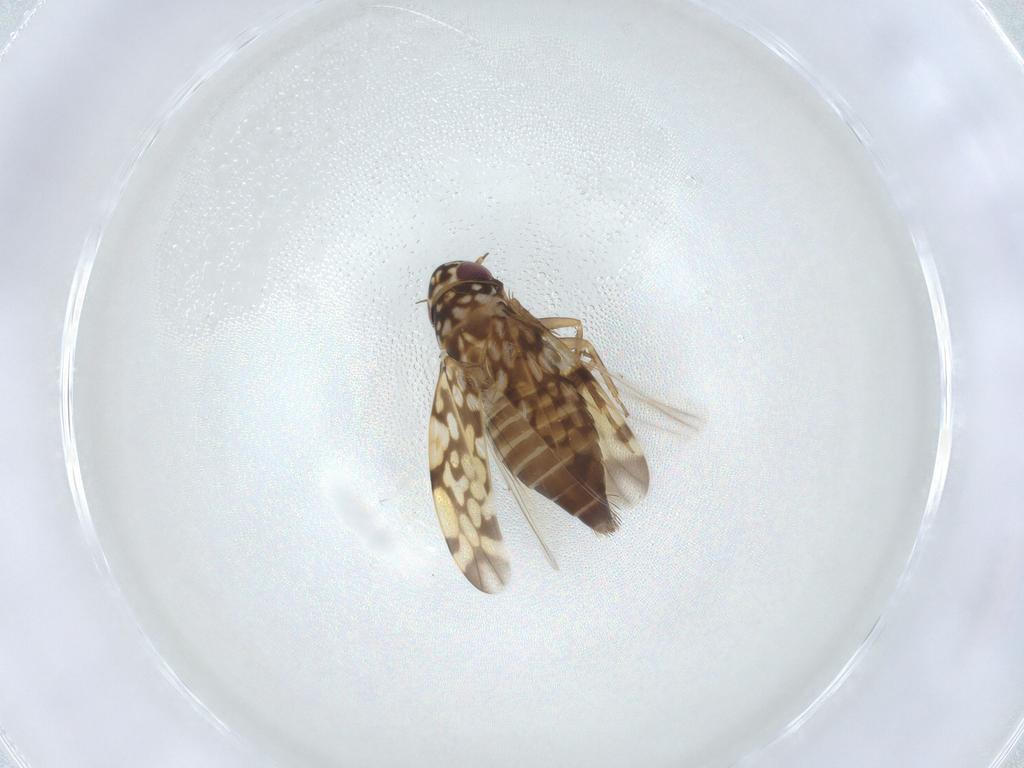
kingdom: Animalia
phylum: Arthropoda
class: Insecta
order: Hemiptera
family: Cicadellidae
